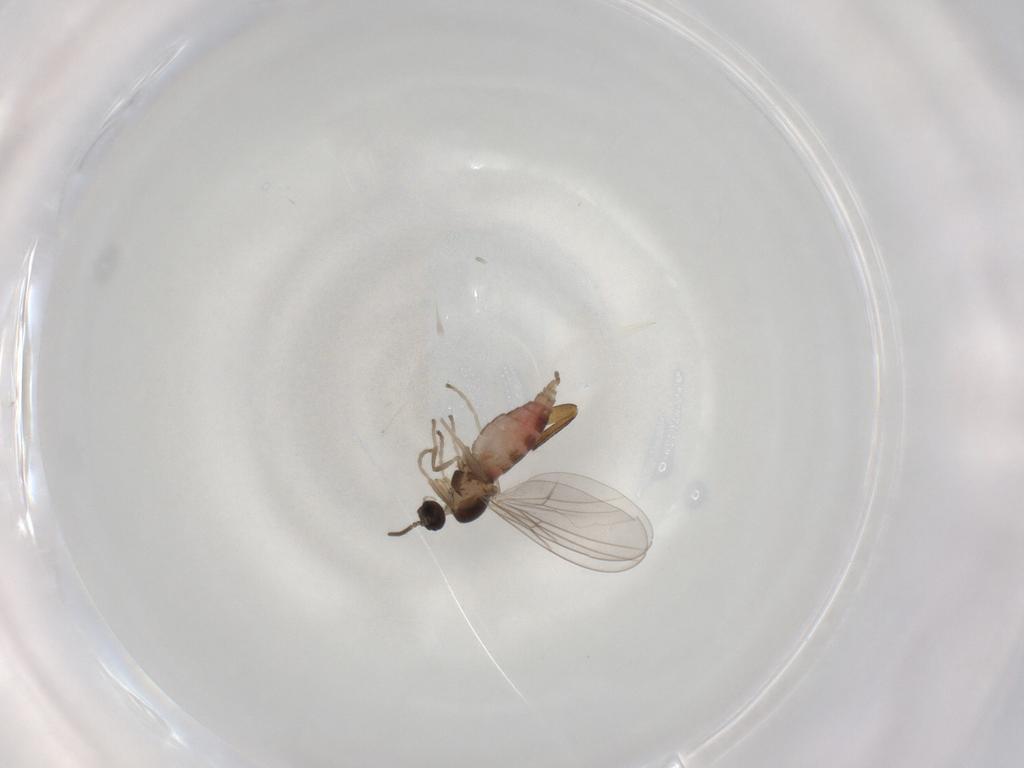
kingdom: Animalia
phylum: Arthropoda
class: Insecta
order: Diptera
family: Cecidomyiidae
